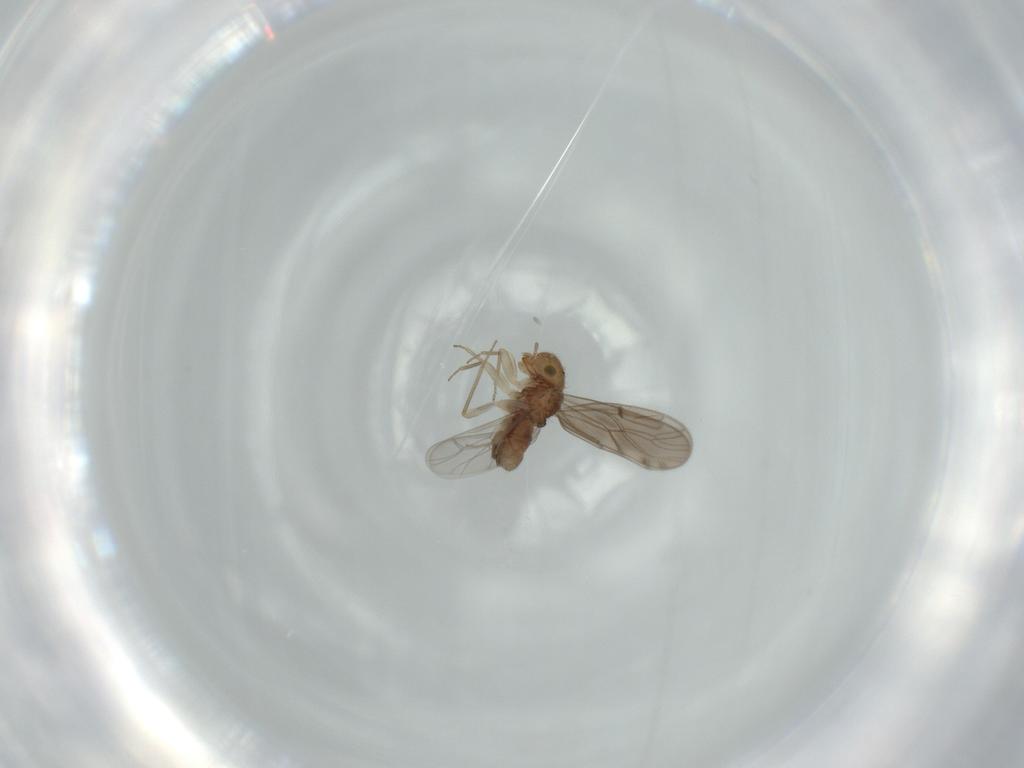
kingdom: Animalia
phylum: Arthropoda
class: Insecta
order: Psocodea
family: Ectopsocidae
